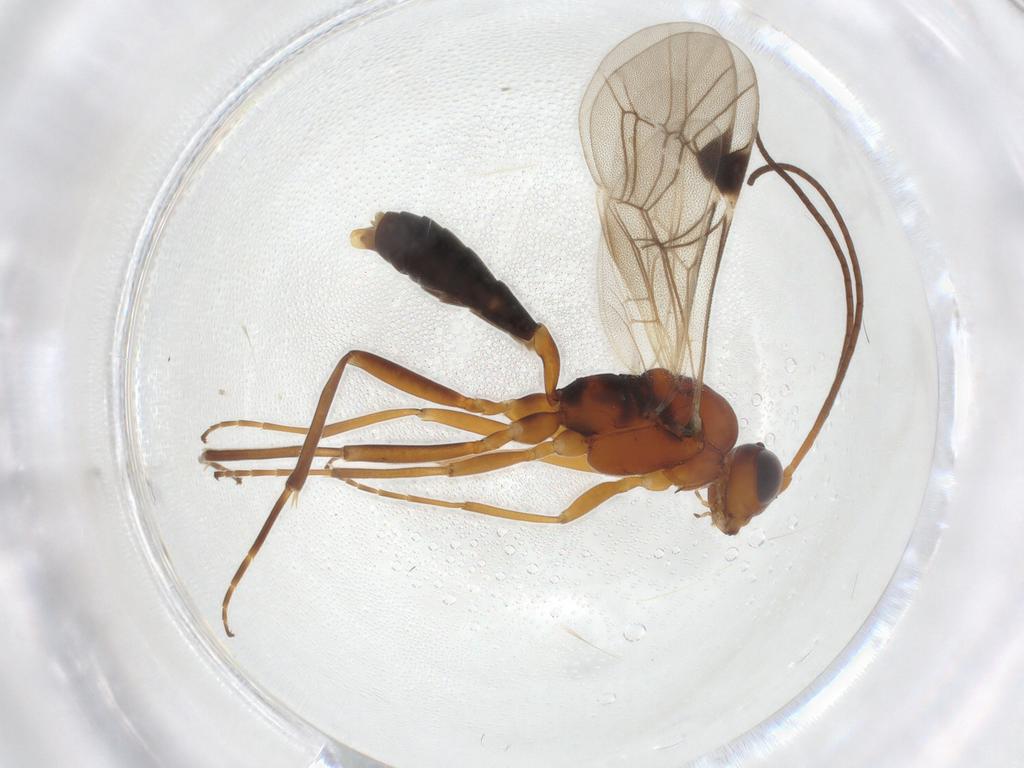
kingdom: Animalia
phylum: Arthropoda
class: Insecta
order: Hymenoptera
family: Ichneumonidae
